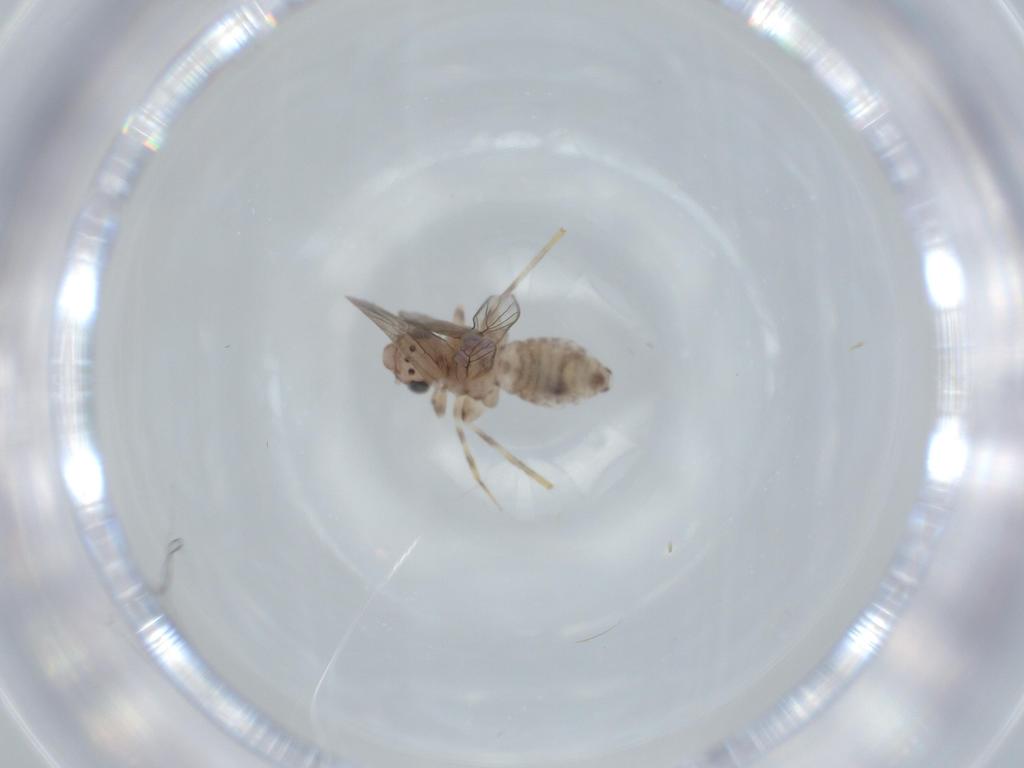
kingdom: Animalia
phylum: Arthropoda
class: Insecta
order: Psocodea
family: Lepidopsocidae
